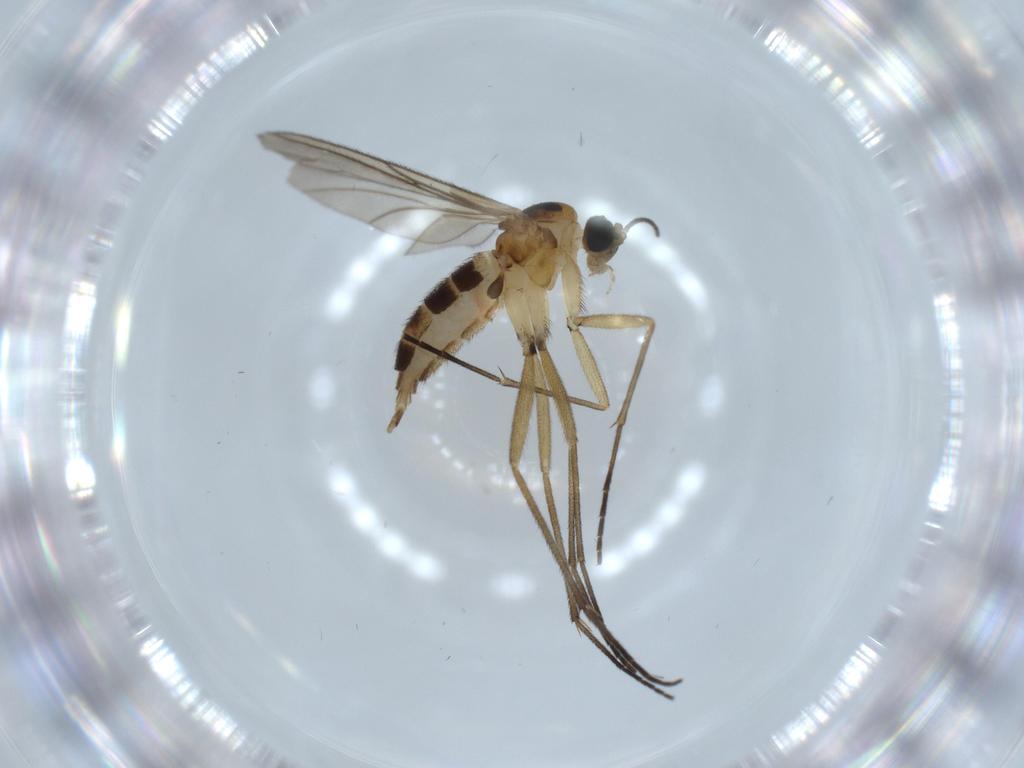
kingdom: Animalia
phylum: Arthropoda
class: Insecta
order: Diptera
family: Sciaridae
